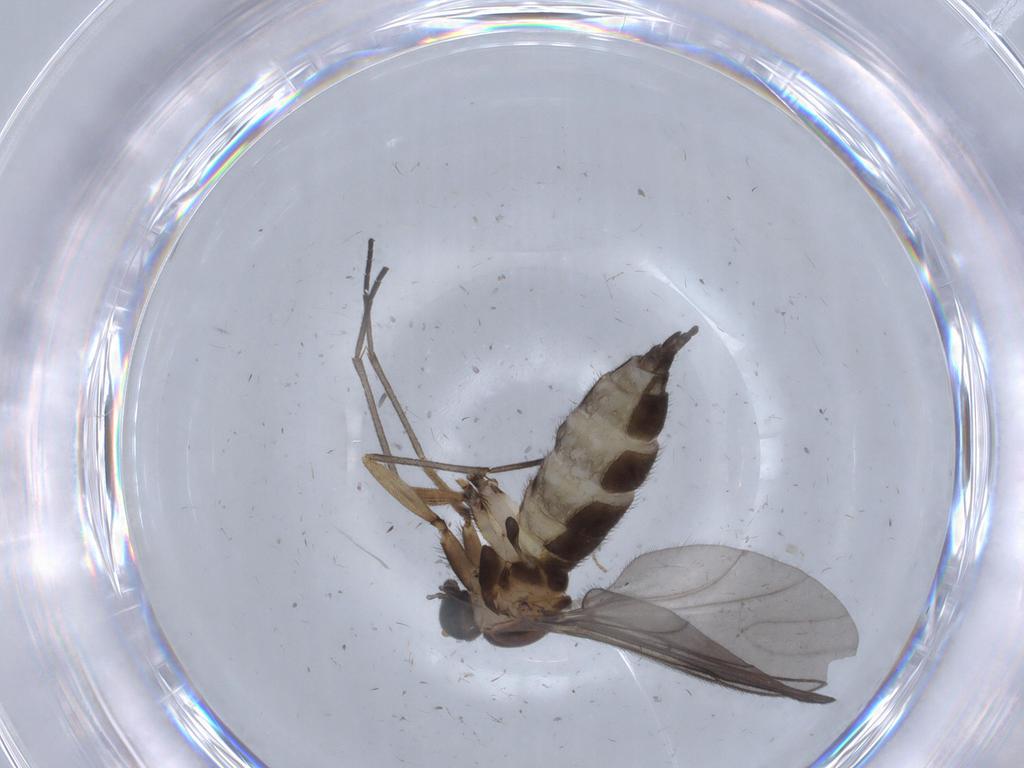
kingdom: Animalia
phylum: Arthropoda
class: Insecta
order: Diptera
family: Sciaridae
